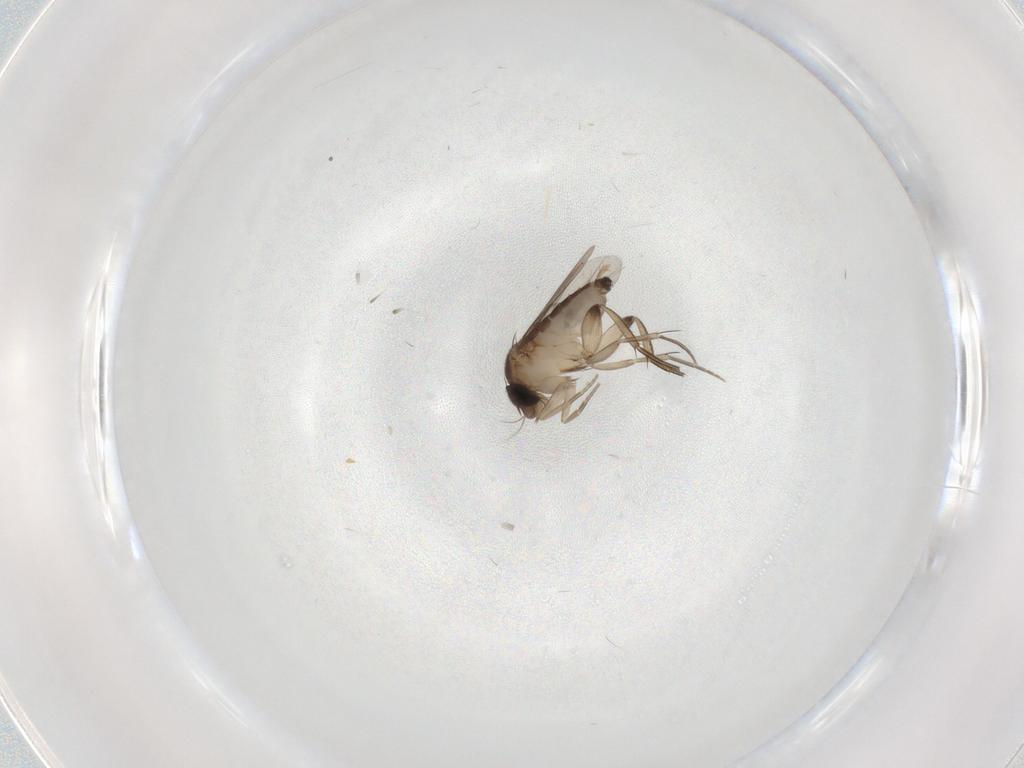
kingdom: Animalia
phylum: Arthropoda
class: Insecta
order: Diptera
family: Phoridae
